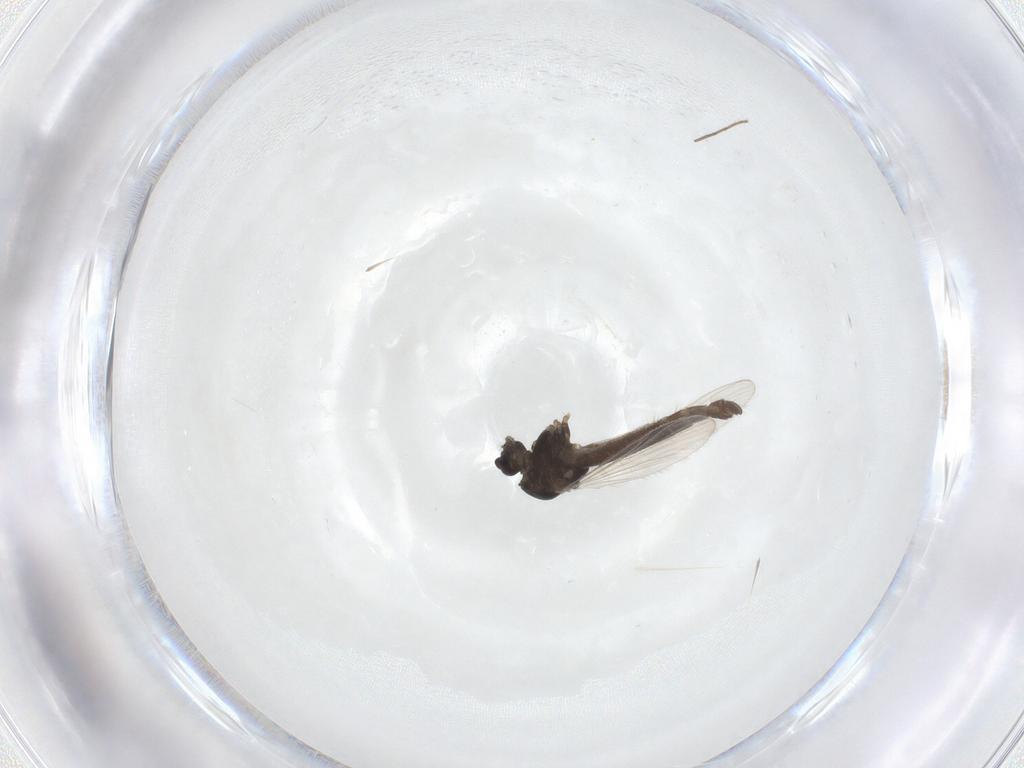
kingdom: Animalia
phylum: Arthropoda
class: Insecta
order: Diptera
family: Chironomidae
